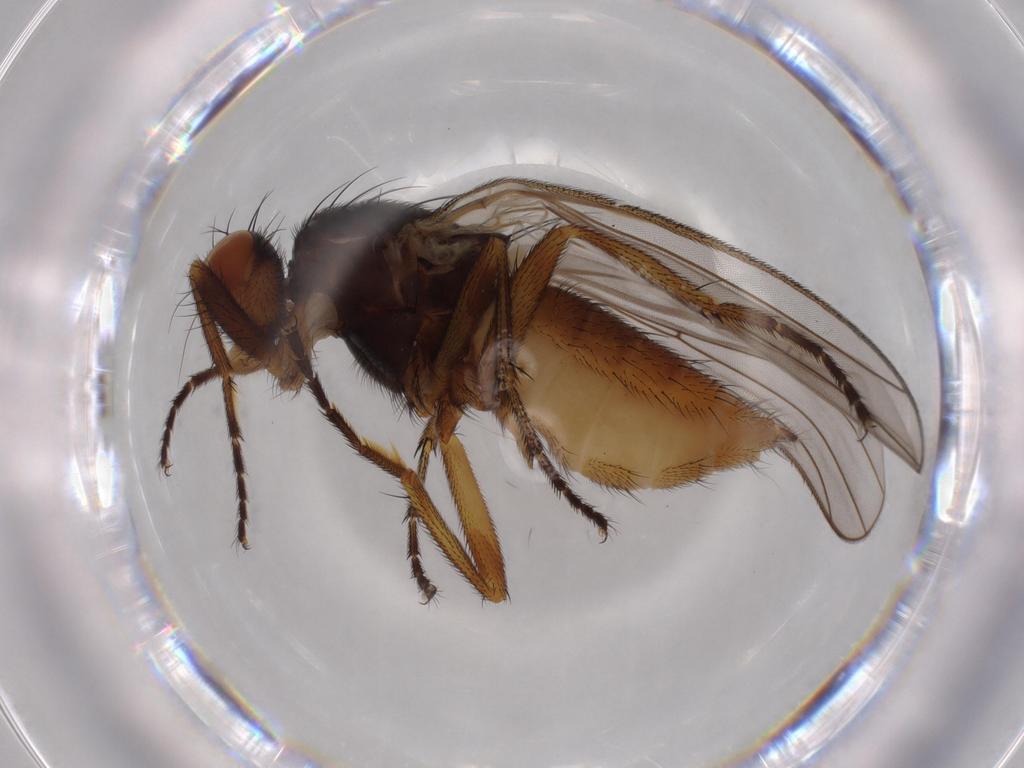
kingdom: Animalia
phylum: Arthropoda
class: Insecta
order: Diptera
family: Heleomyzidae
